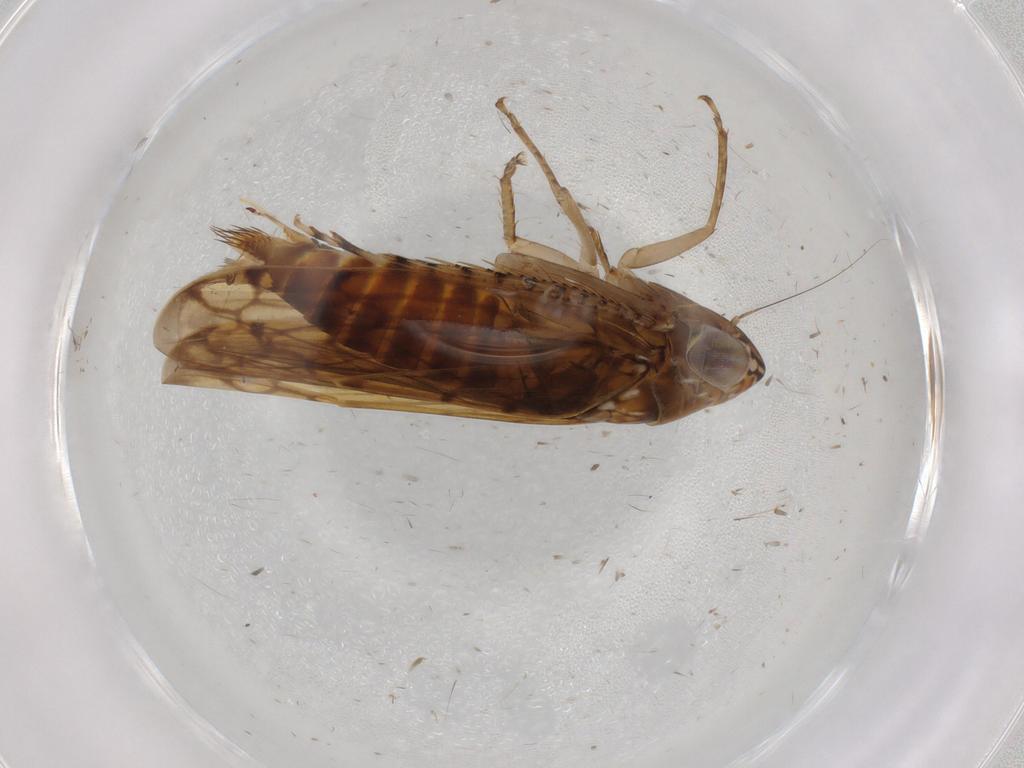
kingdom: Animalia
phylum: Arthropoda
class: Insecta
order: Hemiptera
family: Cicadellidae
